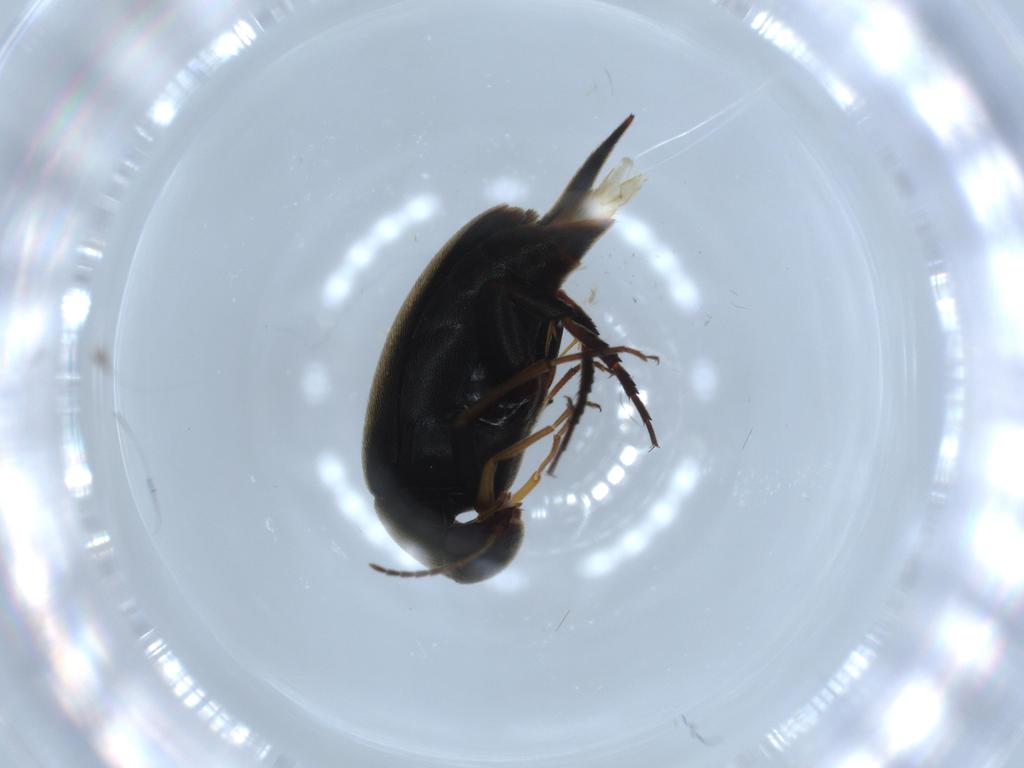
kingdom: Animalia
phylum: Arthropoda
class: Insecta
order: Coleoptera
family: Mordellidae
